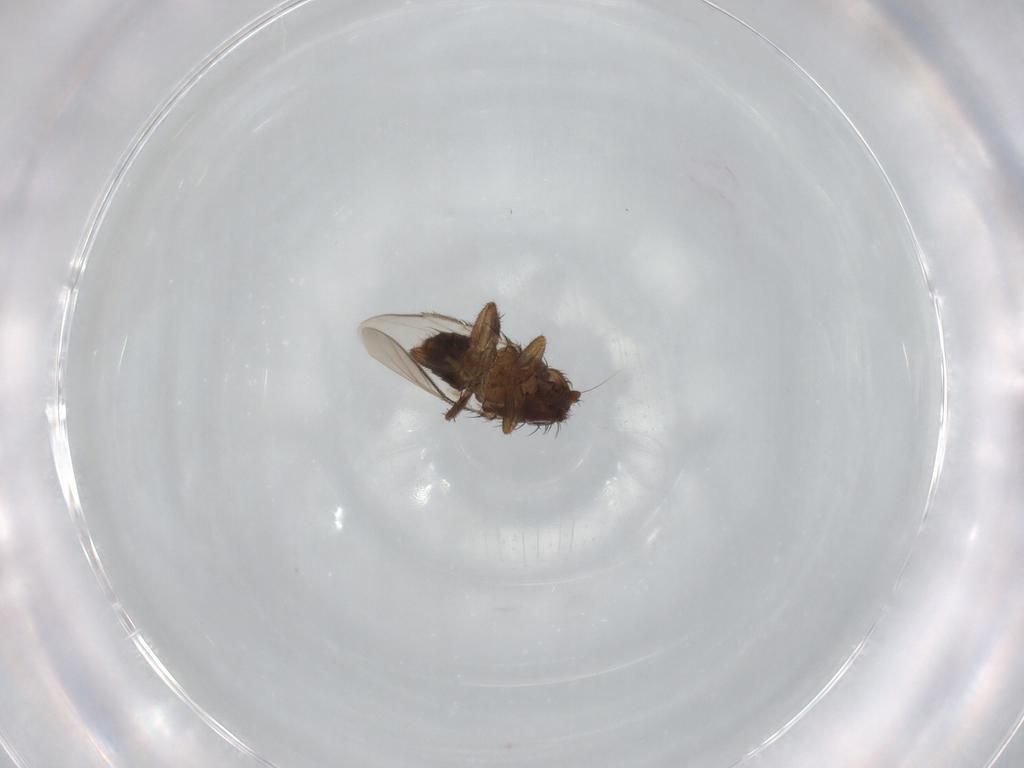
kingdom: Animalia
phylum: Arthropoda
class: Insecta
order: Diptera
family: Sphaeroceridae
